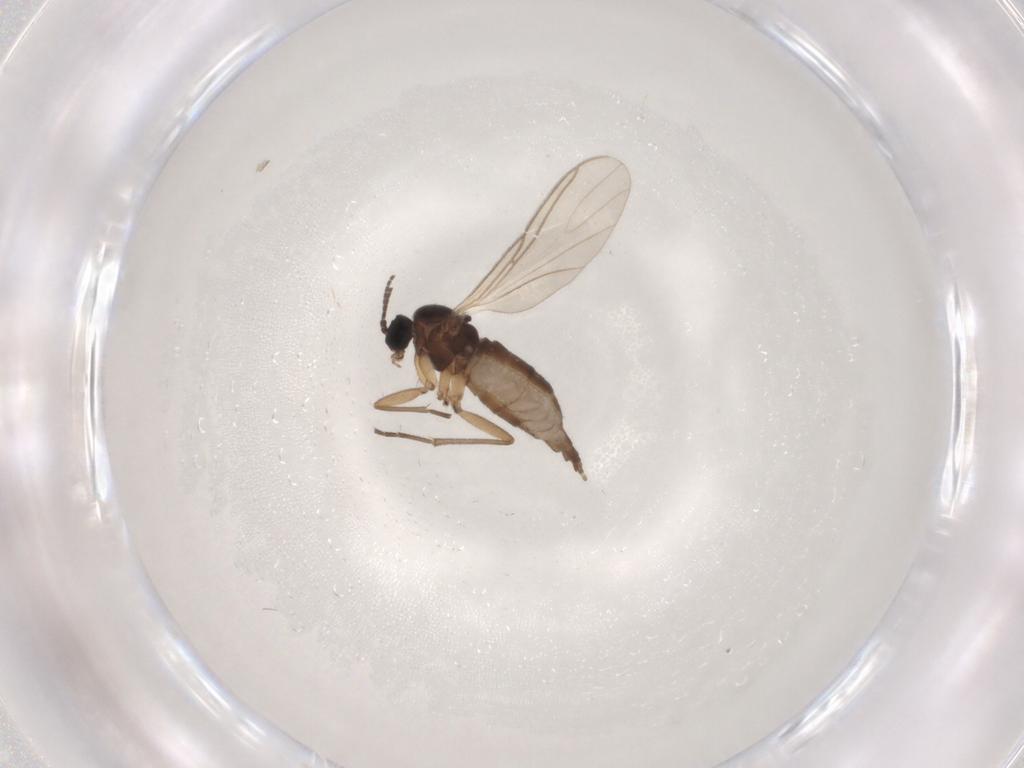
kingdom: Animalia
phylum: Arthropoda
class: Insecta
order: Diptera
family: Sciaridae
